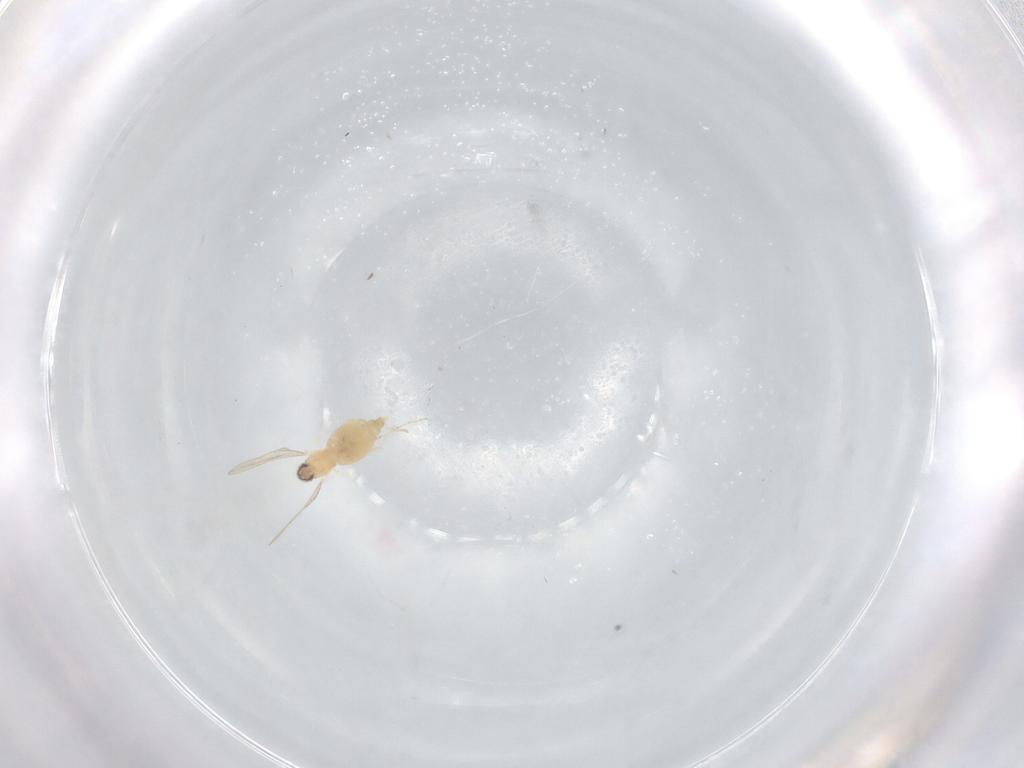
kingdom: Animalia
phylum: Arthropoda
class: Insecta
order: Diptera
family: Cecidomyiidae
